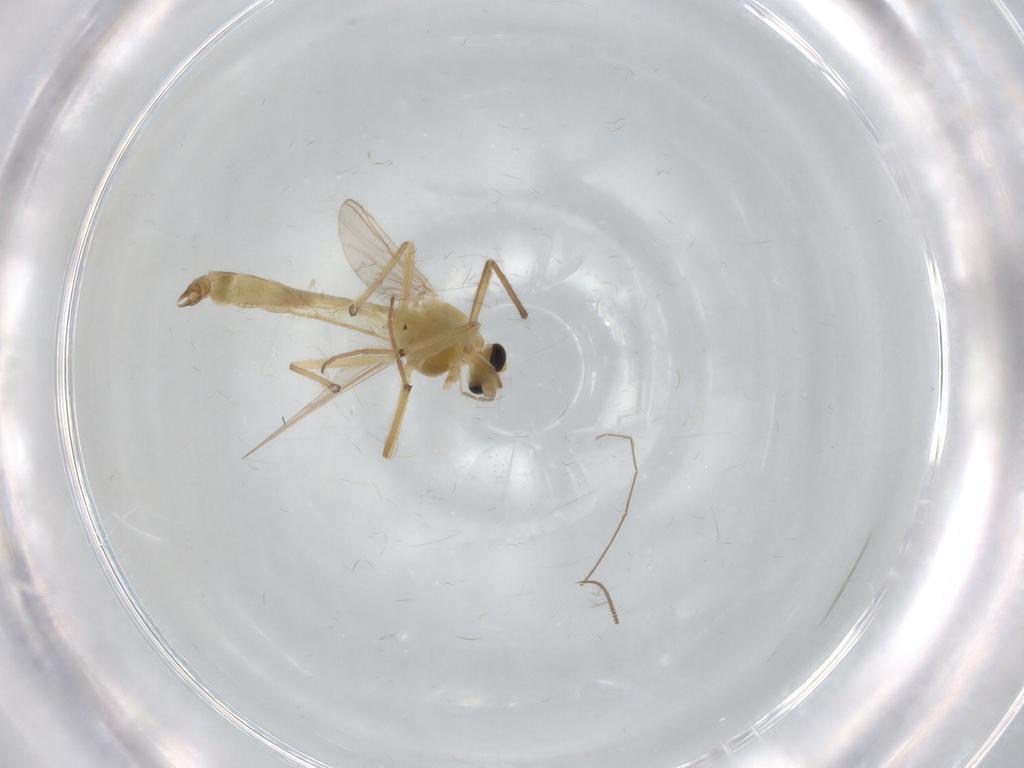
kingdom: Animalia
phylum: Arthropoda
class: Insecta
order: Diptera
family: Chironomidae
